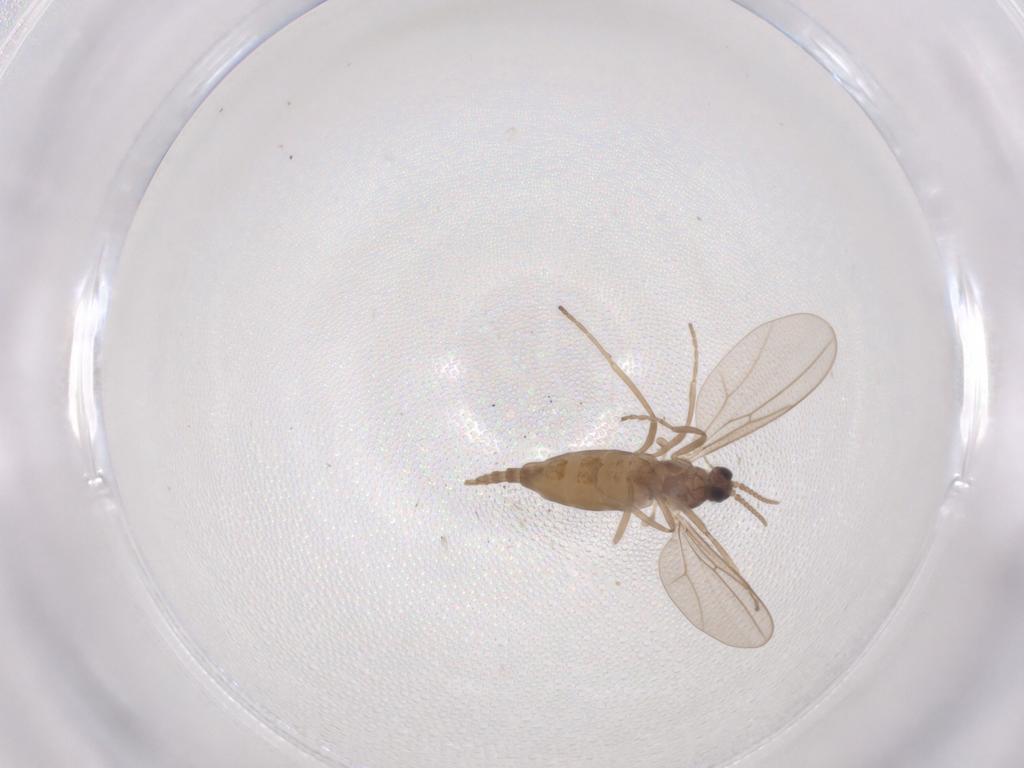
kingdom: Animalia
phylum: Arthropoda
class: Insecta
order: Diptera
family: Cecidomyiidae
